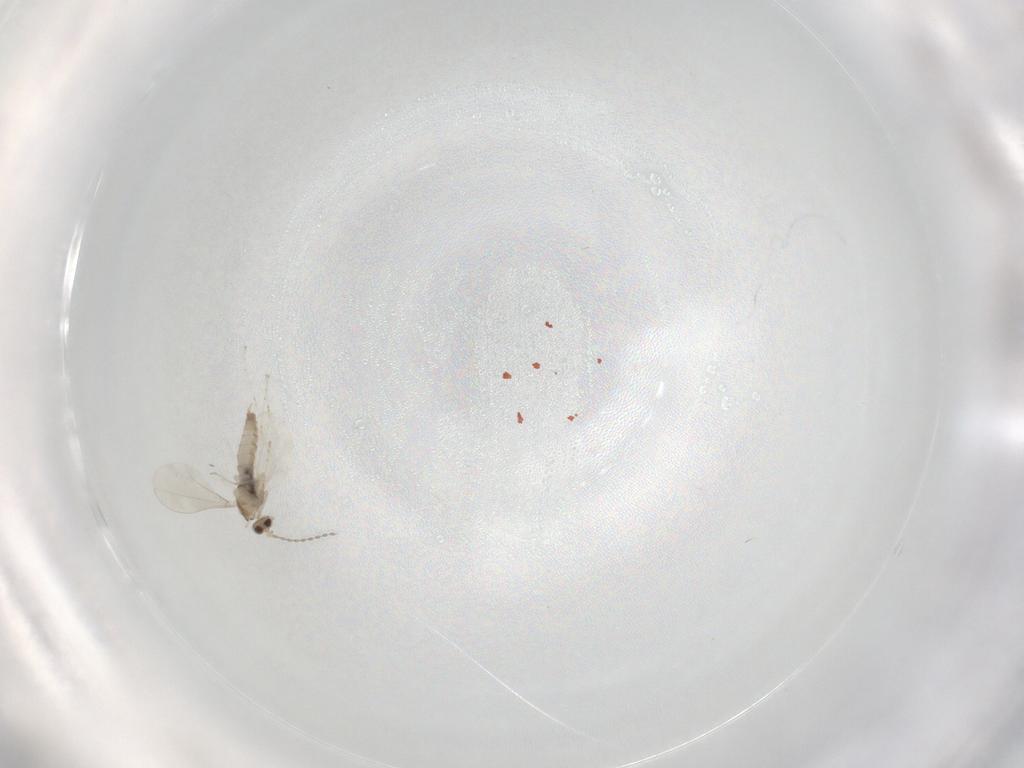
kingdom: Animalia
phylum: Arthropoda
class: Insecta
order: Diptera
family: Cecidomyiidae
